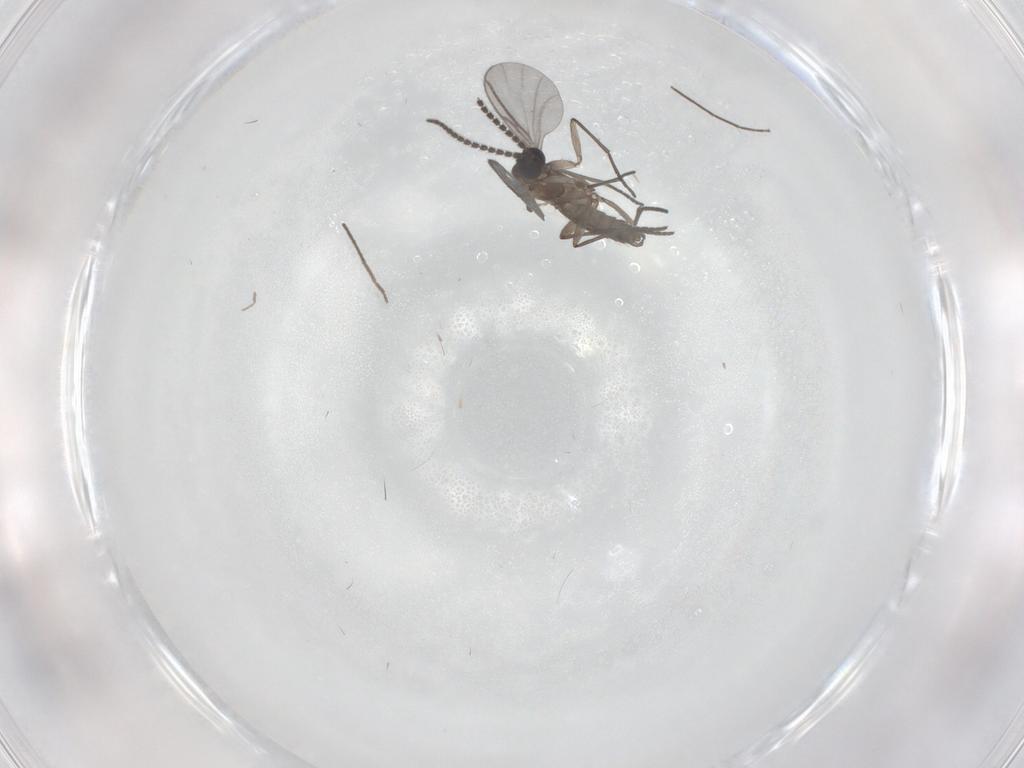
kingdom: Animalia
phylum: Arthropoda
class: Insecta
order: Diptera
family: Chironomidae
